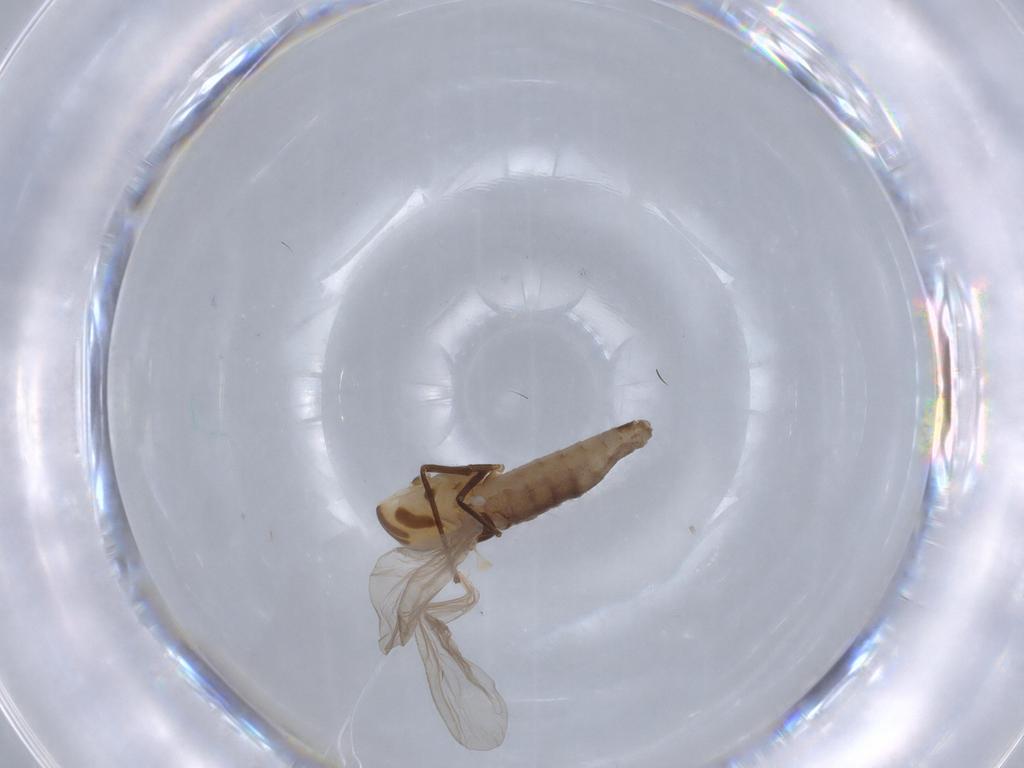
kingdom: Animalia
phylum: Arthropoda
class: Insecta
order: Diptera
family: Chironomidae
